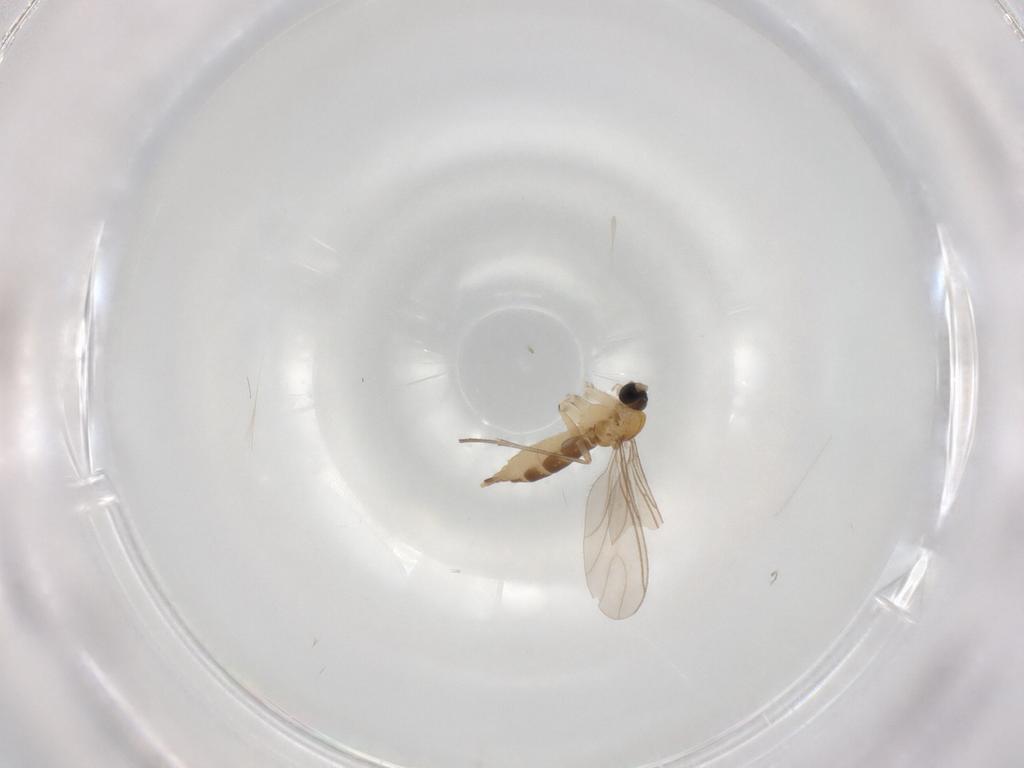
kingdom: Animalia
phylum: Arthropoda
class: Insecta
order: Diptera
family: Sciaridae
